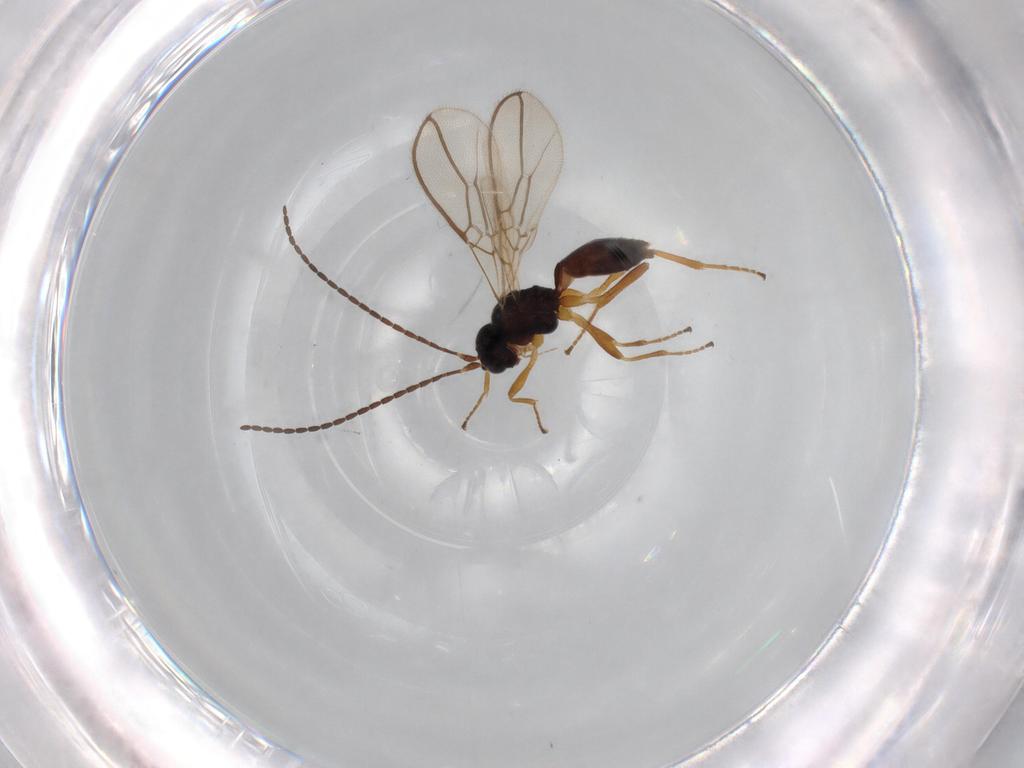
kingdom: Animalia
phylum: Arthropoda
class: Insecta
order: Hymenoptera
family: Braconidae
